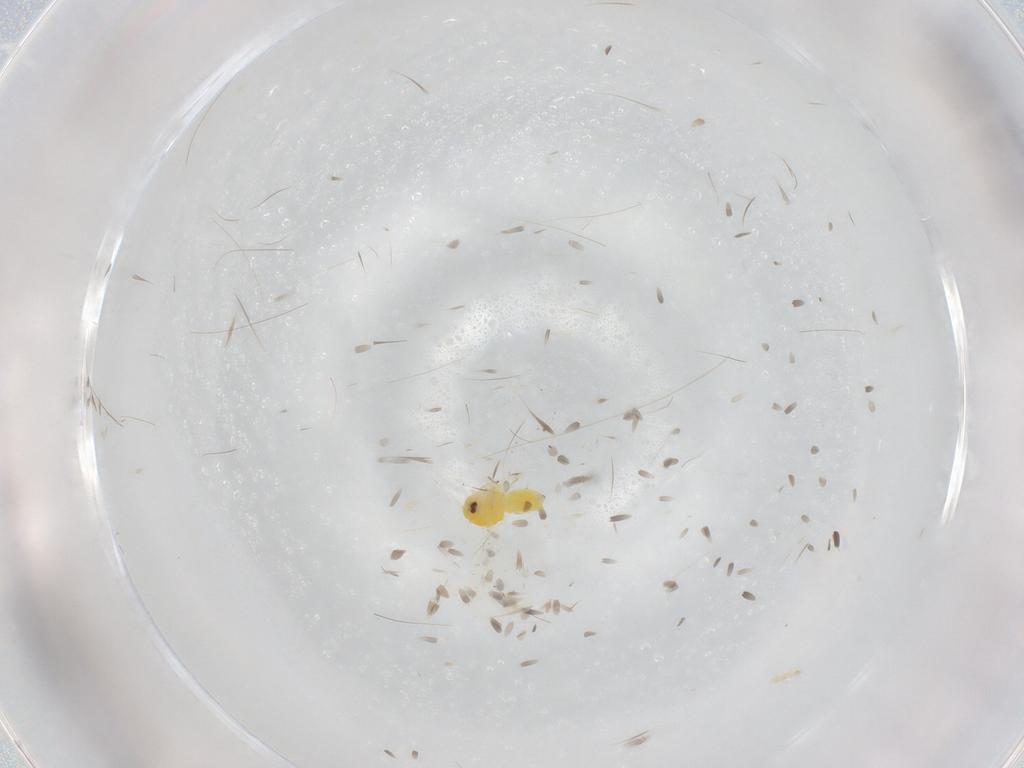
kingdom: Animalia
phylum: Arthropoda
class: Insecta
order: Hemiptera
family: Aleyrodidae
